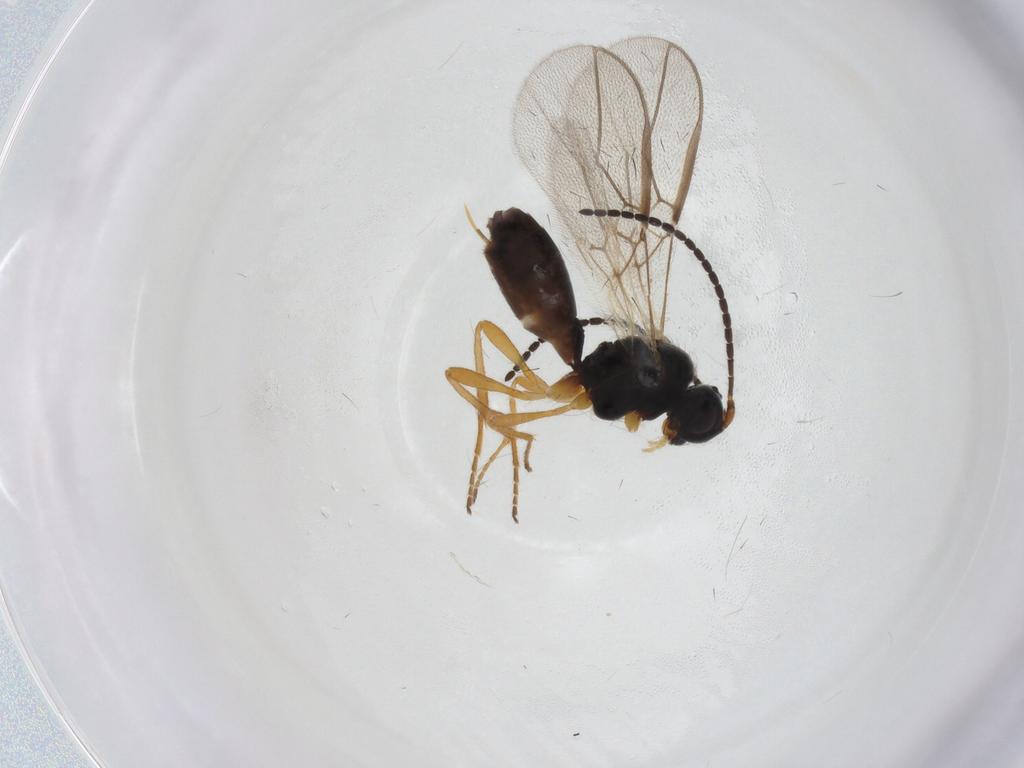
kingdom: Animalia
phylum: Arthropoda
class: Insecta
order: Hymenoptera
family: Braconidae
